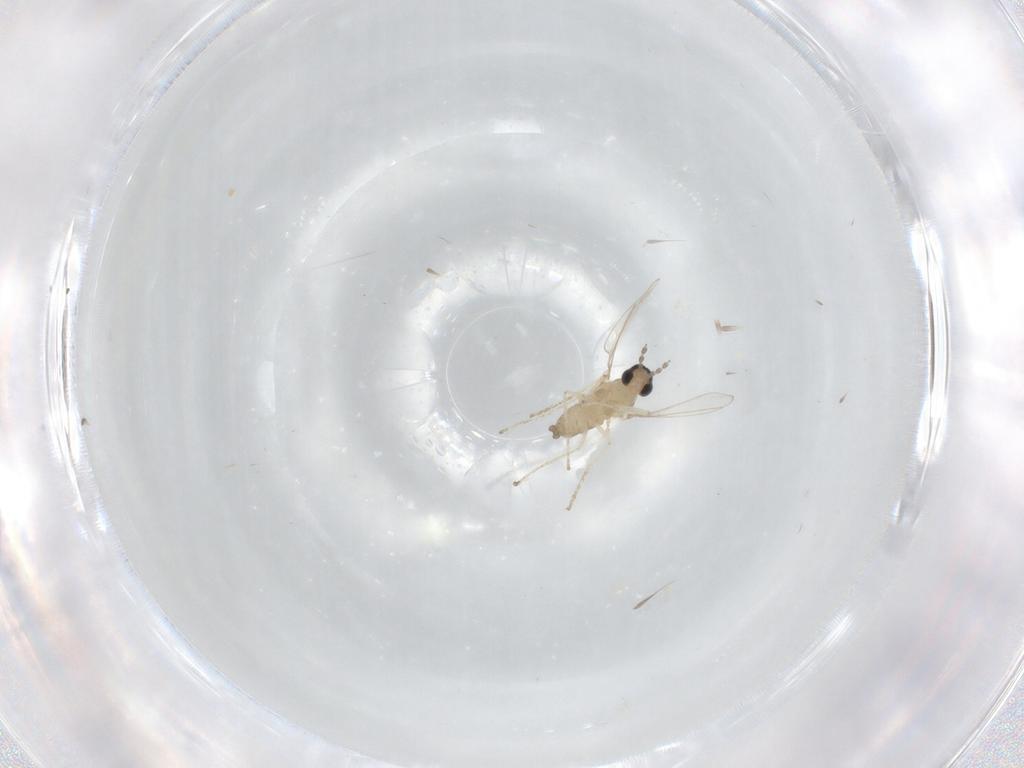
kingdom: Animalia
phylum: Arthropoda
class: Insecta
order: Diptera
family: Cecidomyiidae
